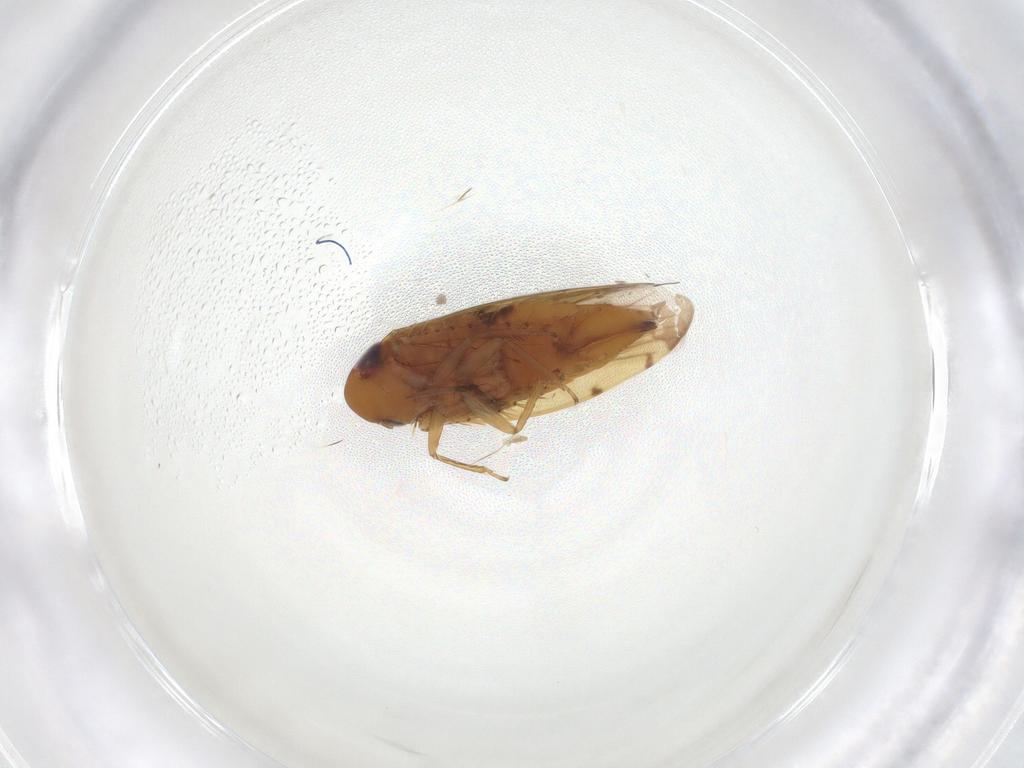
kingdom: Animalia
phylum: Arthropoda
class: Insecta
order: Hemiptera
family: Cicadellidae
